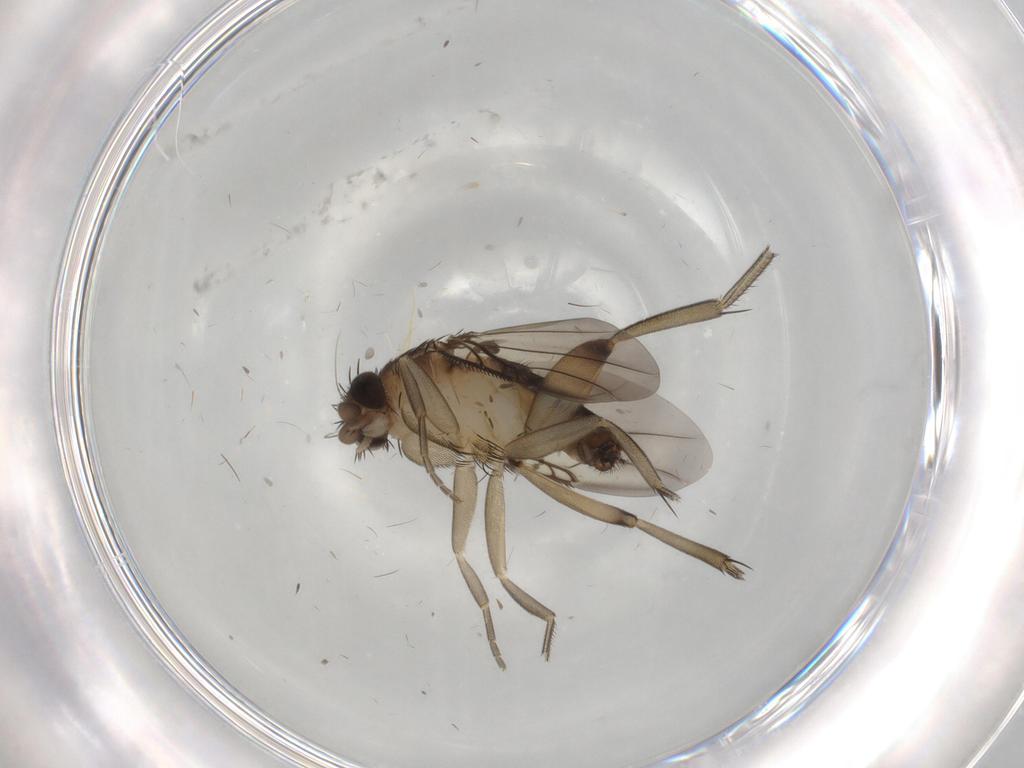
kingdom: Animalia
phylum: Arthropoda
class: Insecta
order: Diptera
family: Phoridae
